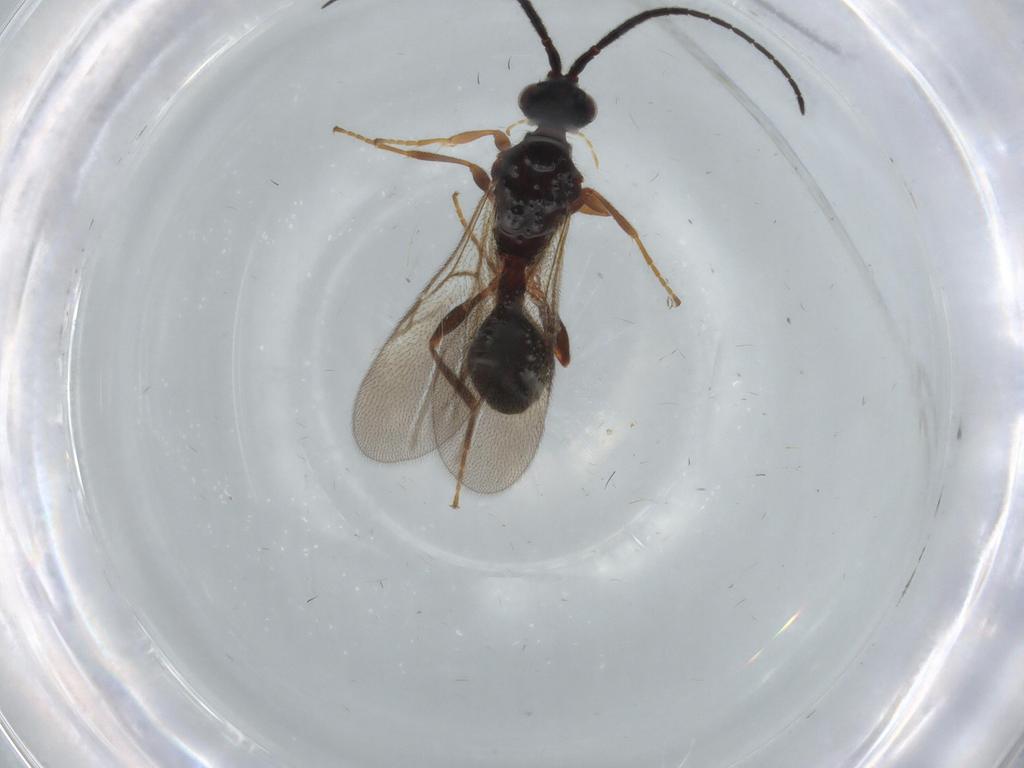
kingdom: Animalia
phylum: Arthropoda
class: Insecta
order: Hymenoptera
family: Diapriidae
